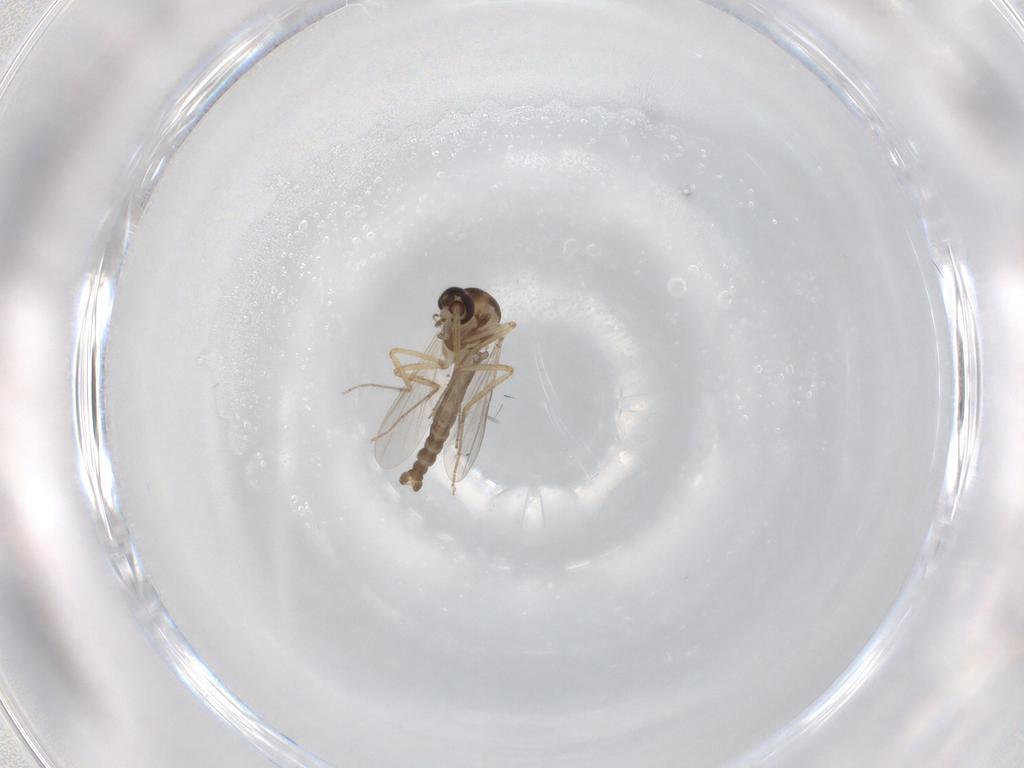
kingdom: Animalia
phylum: Arthropoda
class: Insecta
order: Diptera
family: Ceratopogonidae
